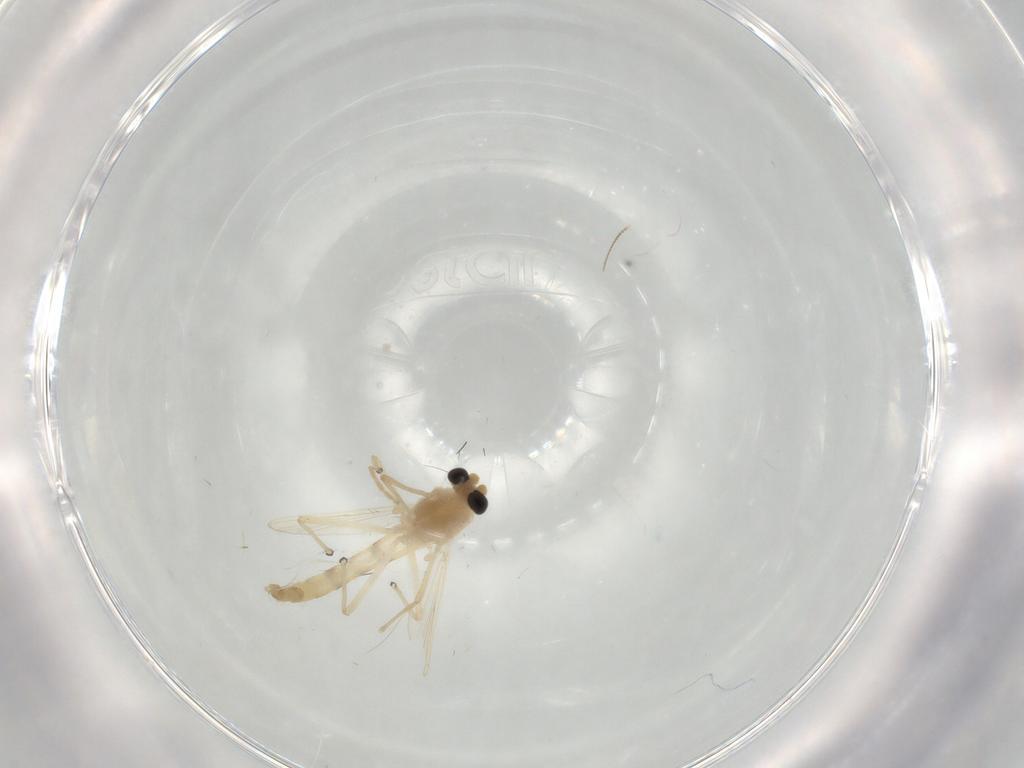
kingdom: Animalia
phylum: Arthropoda
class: Insecta
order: Diptera
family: Chironomidae
